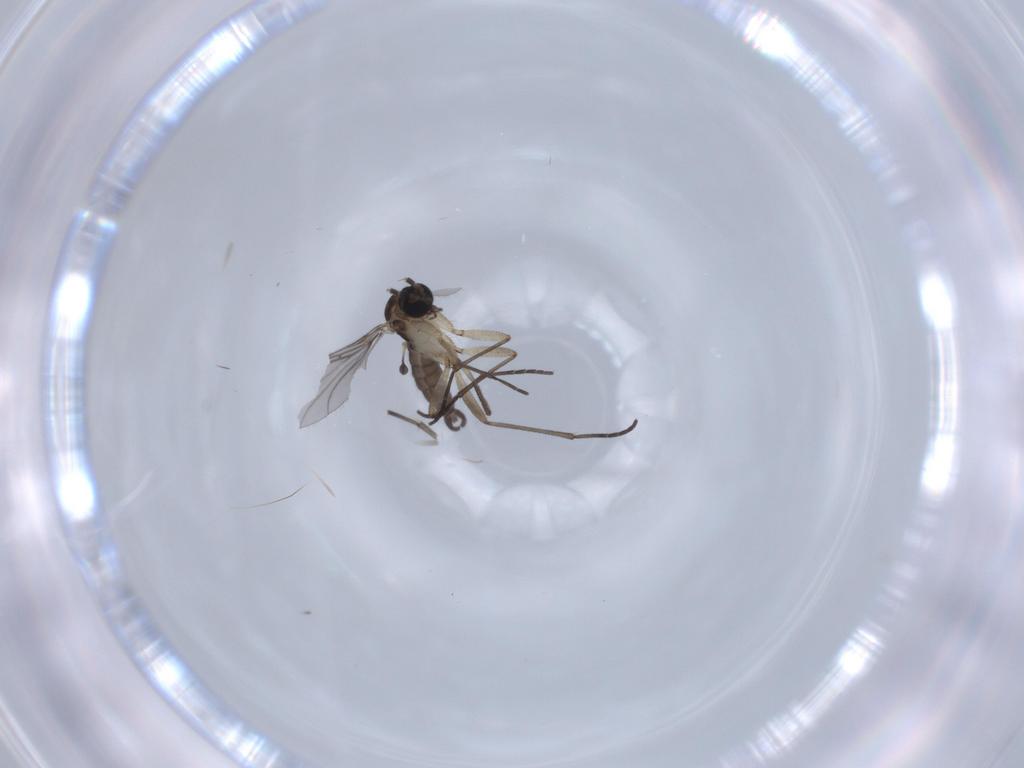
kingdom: Animalia
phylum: Arthropoda
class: Insecta
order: Diptera
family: Sciaridae
